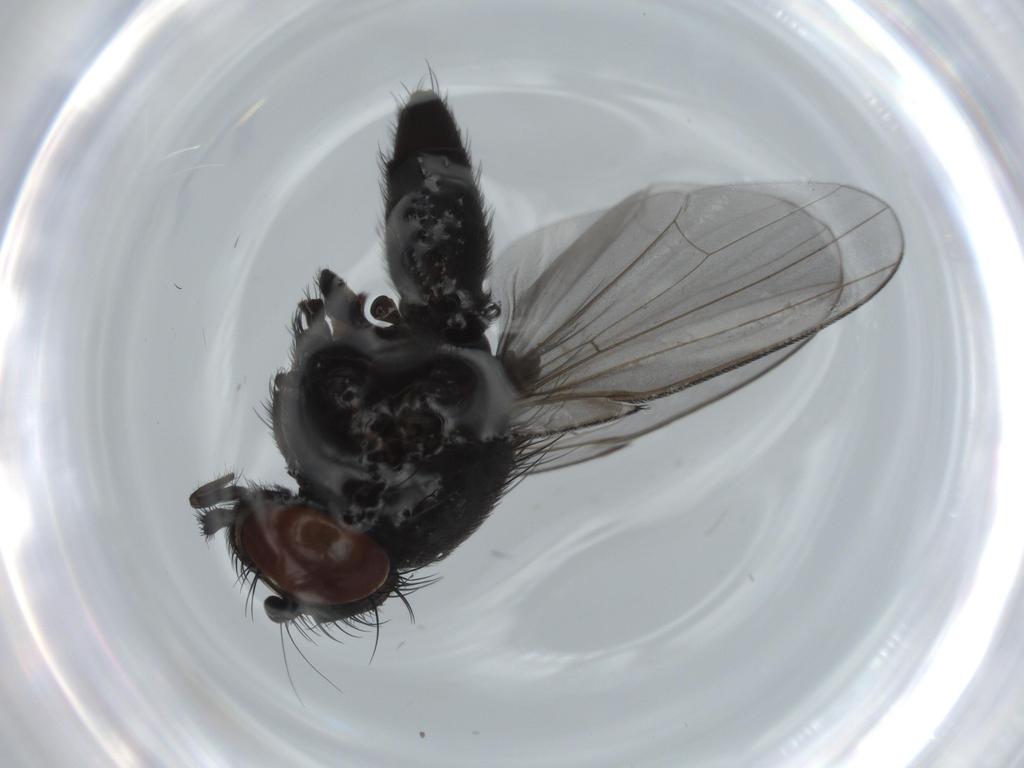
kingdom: Animalia
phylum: Arthropoda
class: Insecta
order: Diptera
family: Milichiidae
